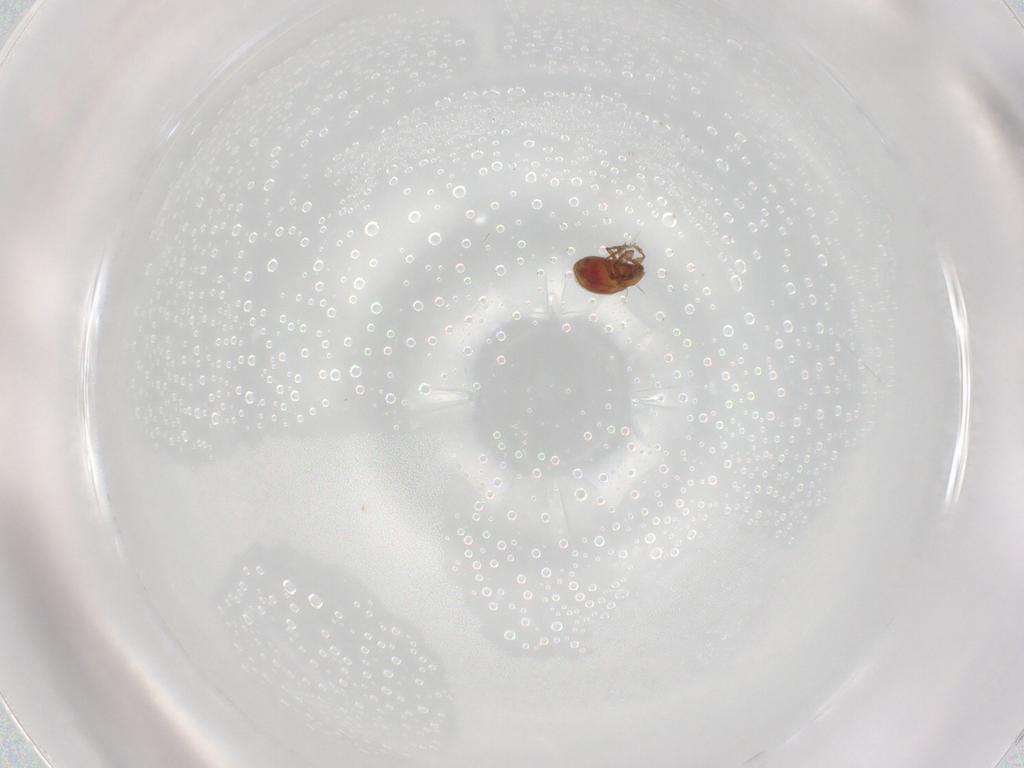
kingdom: Animalia
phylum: Arthropoda
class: Arachnida
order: Sarcoptiformes
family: Oribatulidae
